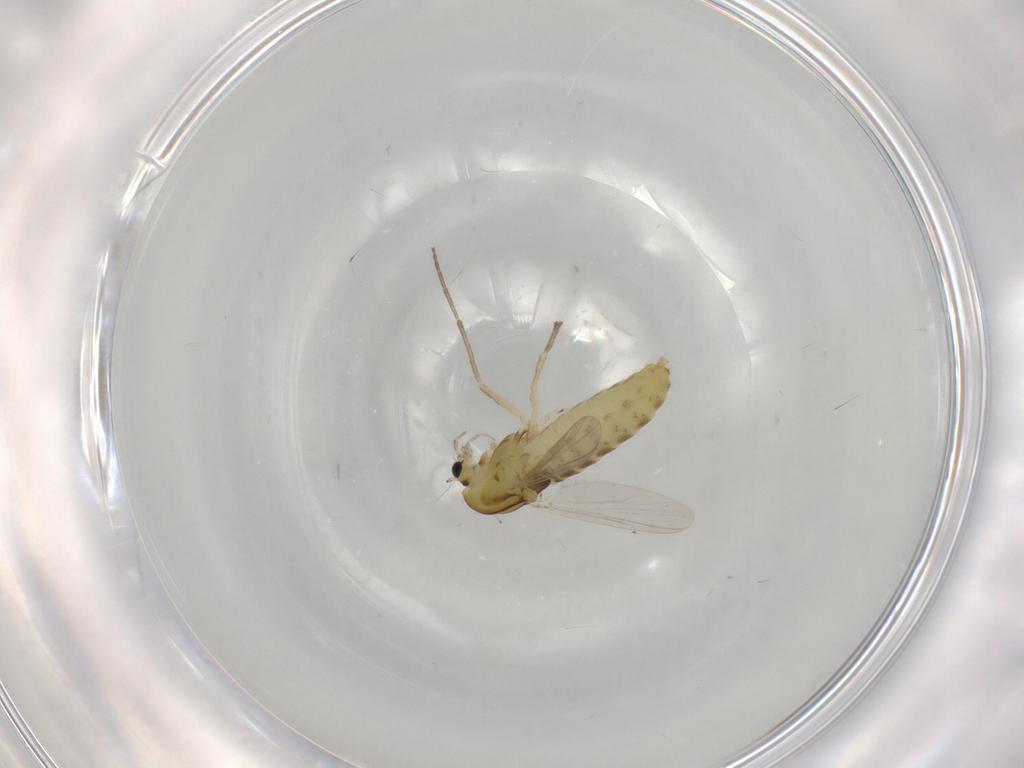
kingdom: Animalia
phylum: Arthropoda
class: Insecta
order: Diptera
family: Chironomidae
